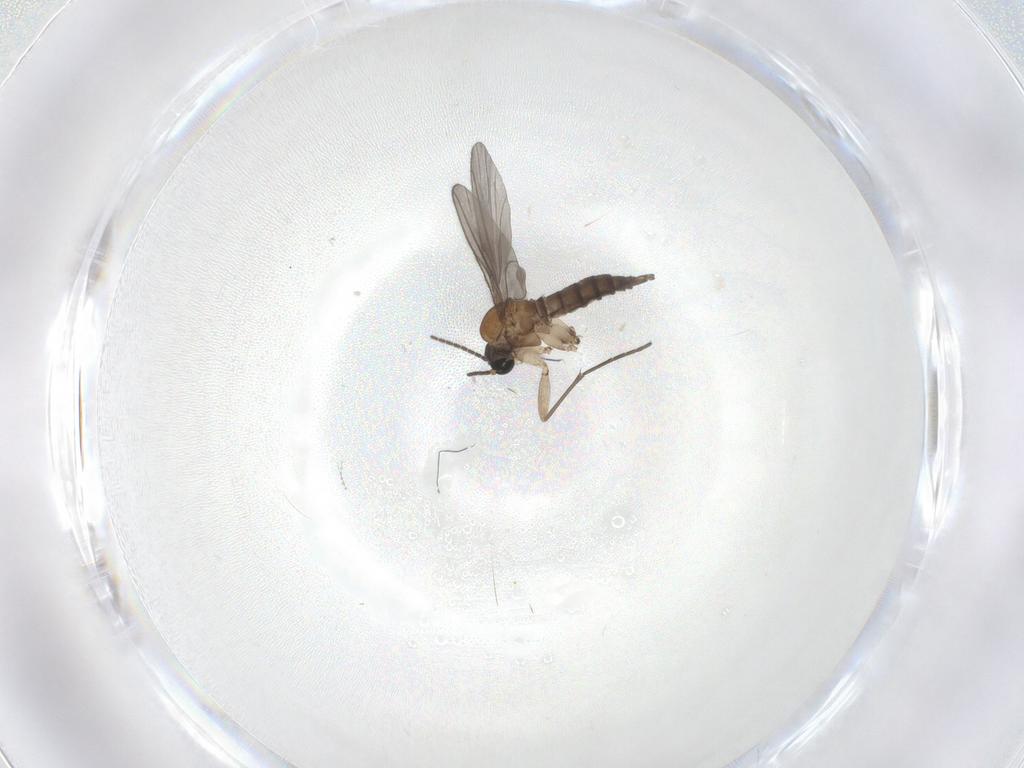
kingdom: Animalia
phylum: Arthropoda
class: Insecta
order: Diptera
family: Sciaridae
